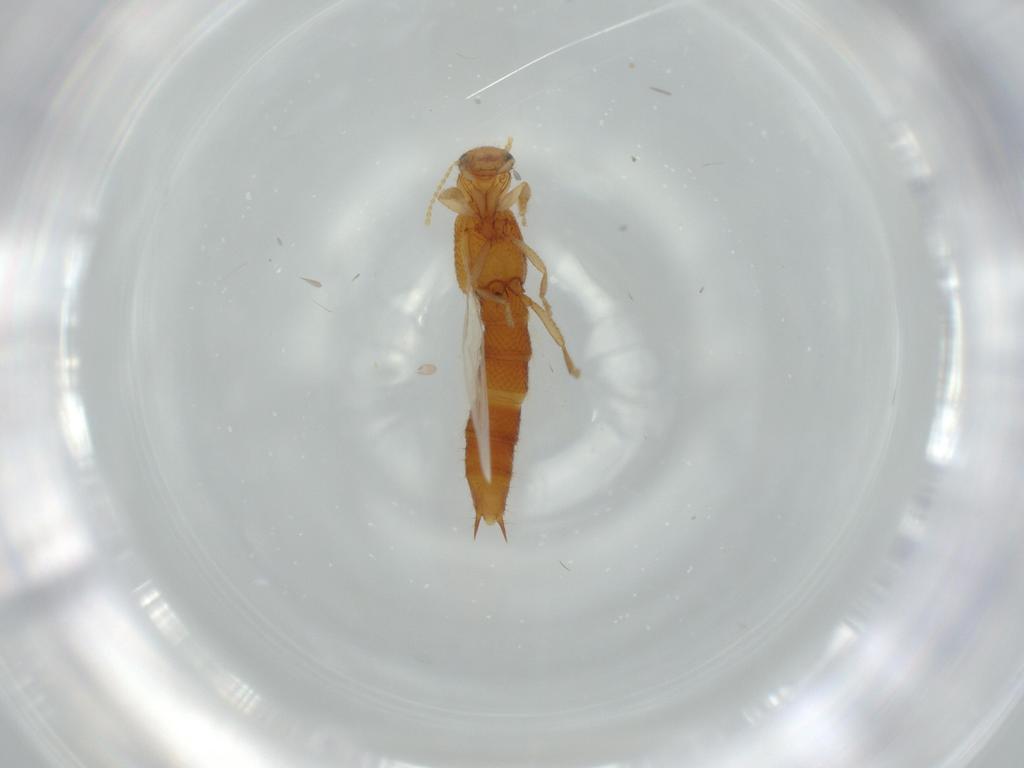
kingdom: Animalia
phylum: Arthropoda
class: Insecta
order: Coleoptera
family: Staphylinidae
